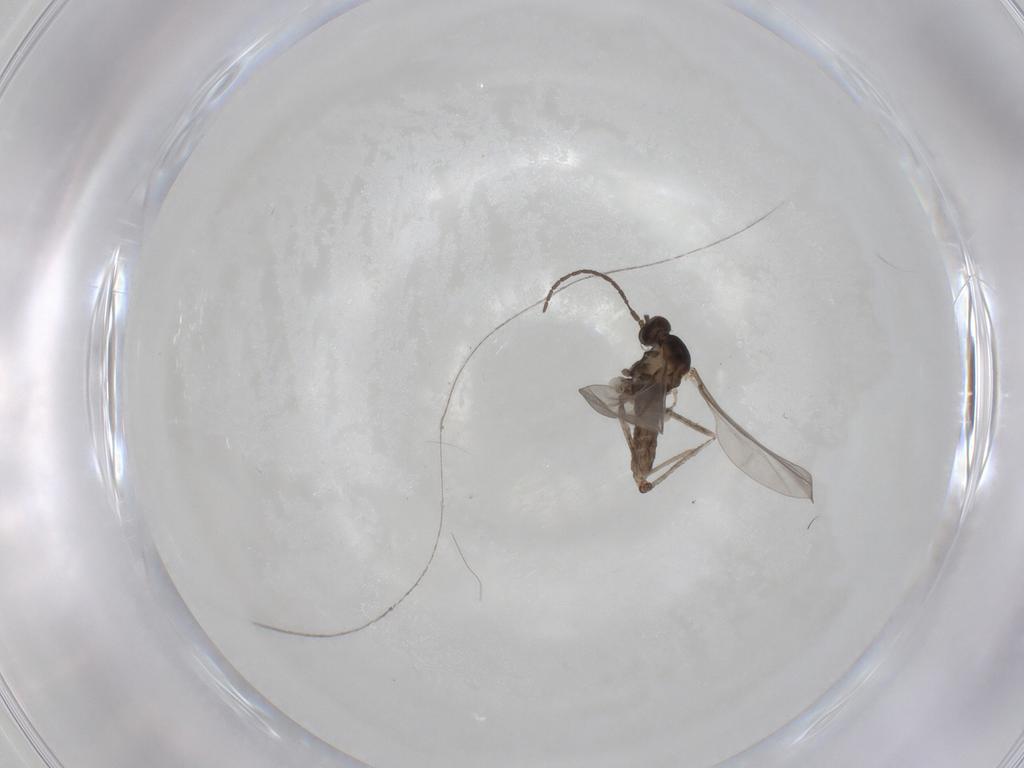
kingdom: Animalia
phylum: Arthropoda
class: Insecta
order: Diptera
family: Cecidomyiidae
